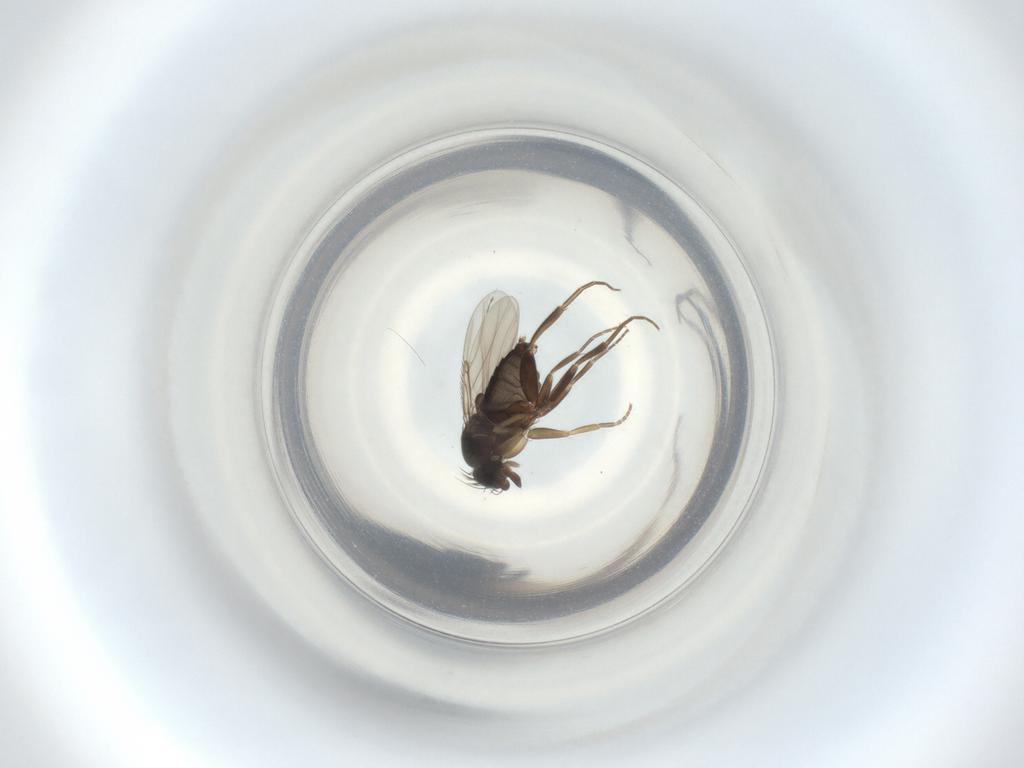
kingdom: Animalia
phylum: Arthropoda
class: Insecta
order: Diptera
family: Phoridae
